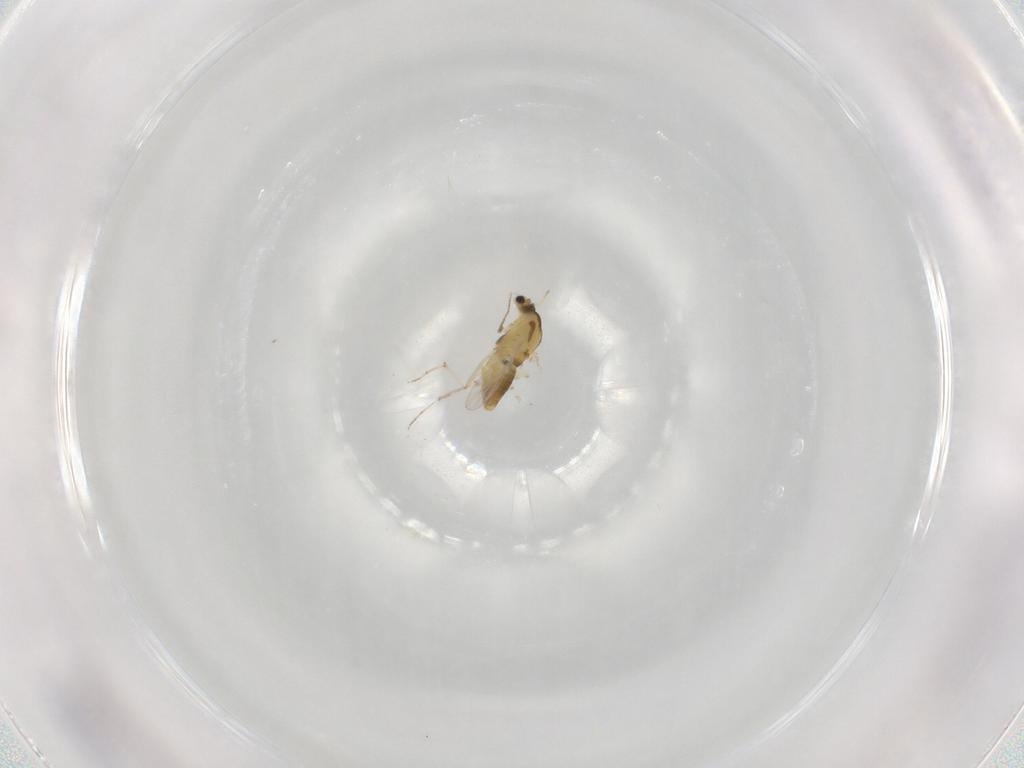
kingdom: Animalia
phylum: Arthropoda
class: Insecta
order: Diptera
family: Chironomidae
